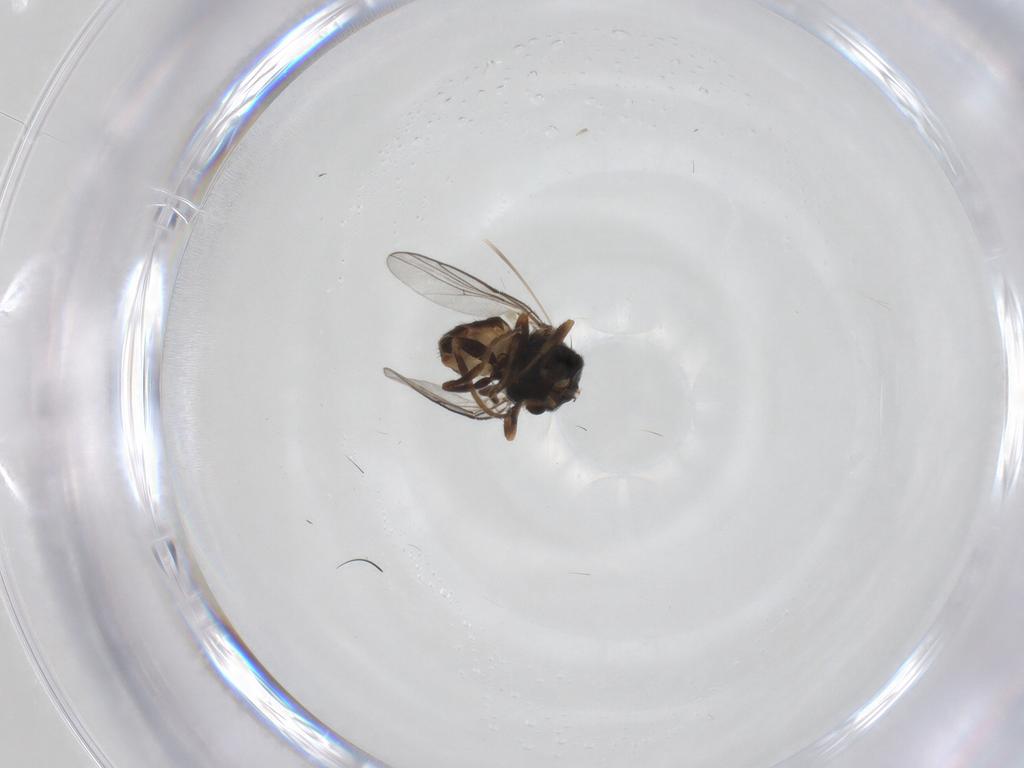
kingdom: Animalia
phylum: Arthropoda
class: Insecta
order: Diptera
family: Chloropidae
